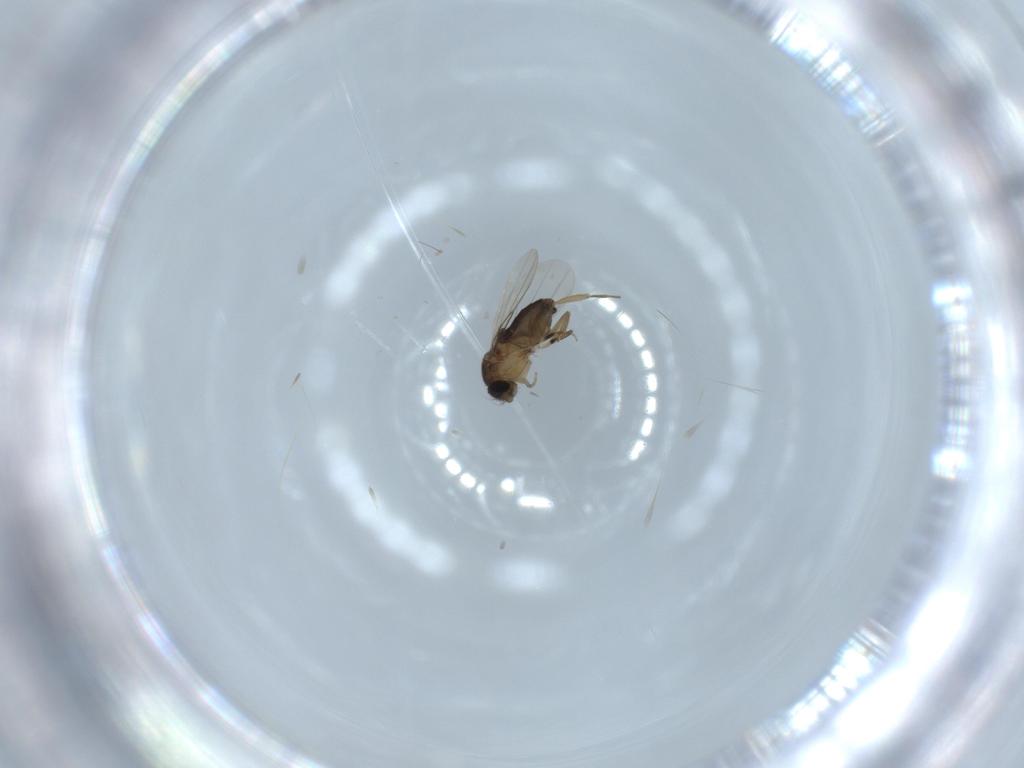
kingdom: Animalia
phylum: Arthropoda
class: Insecta
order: Diptera
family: Phoridae
